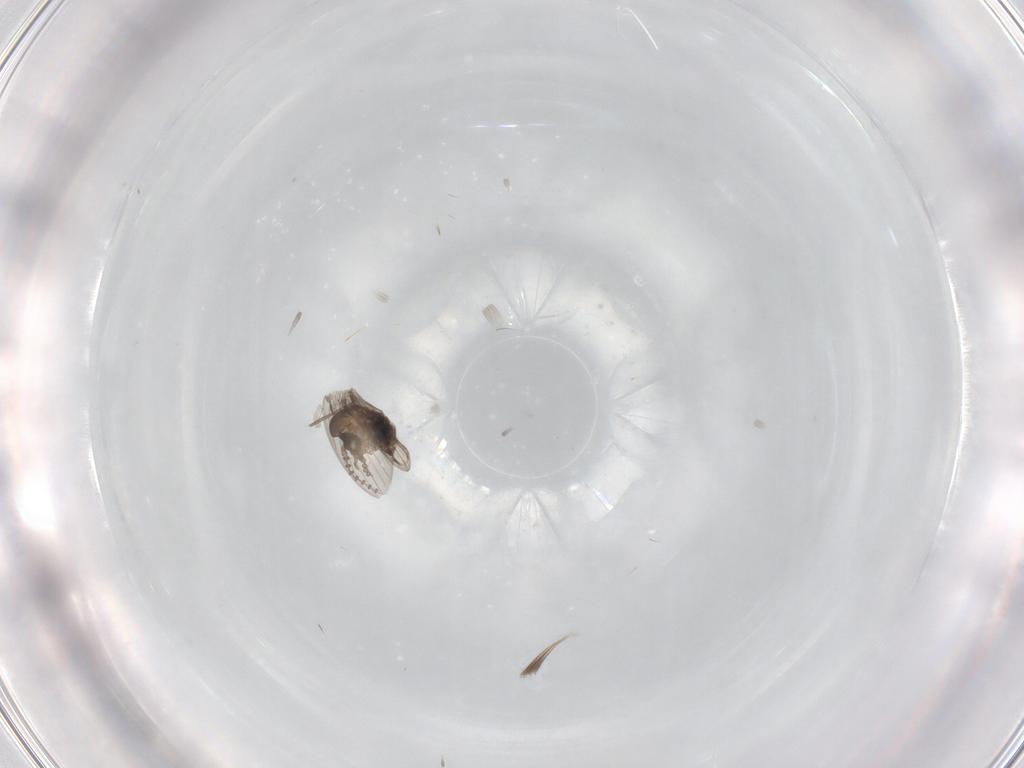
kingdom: Animalia
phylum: Arthropoda
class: Insecta
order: Diptera
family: Psychodidae
